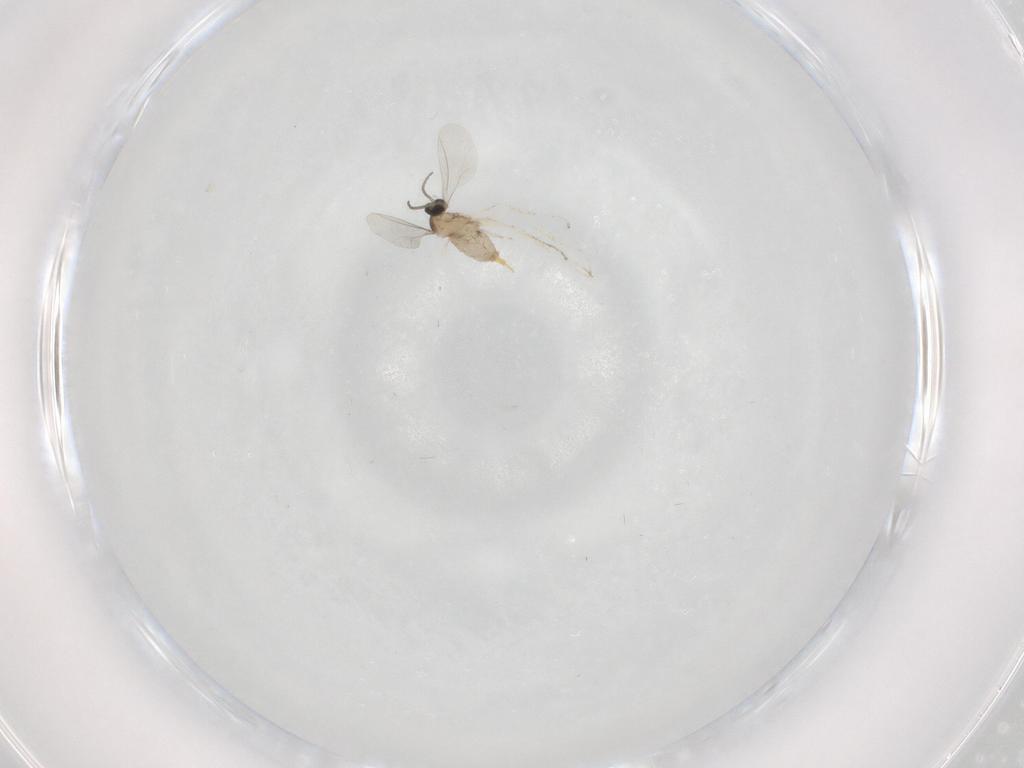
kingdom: Animalia
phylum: Arthropoda
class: Insecta
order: Diptera
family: Cecidomyiidae
